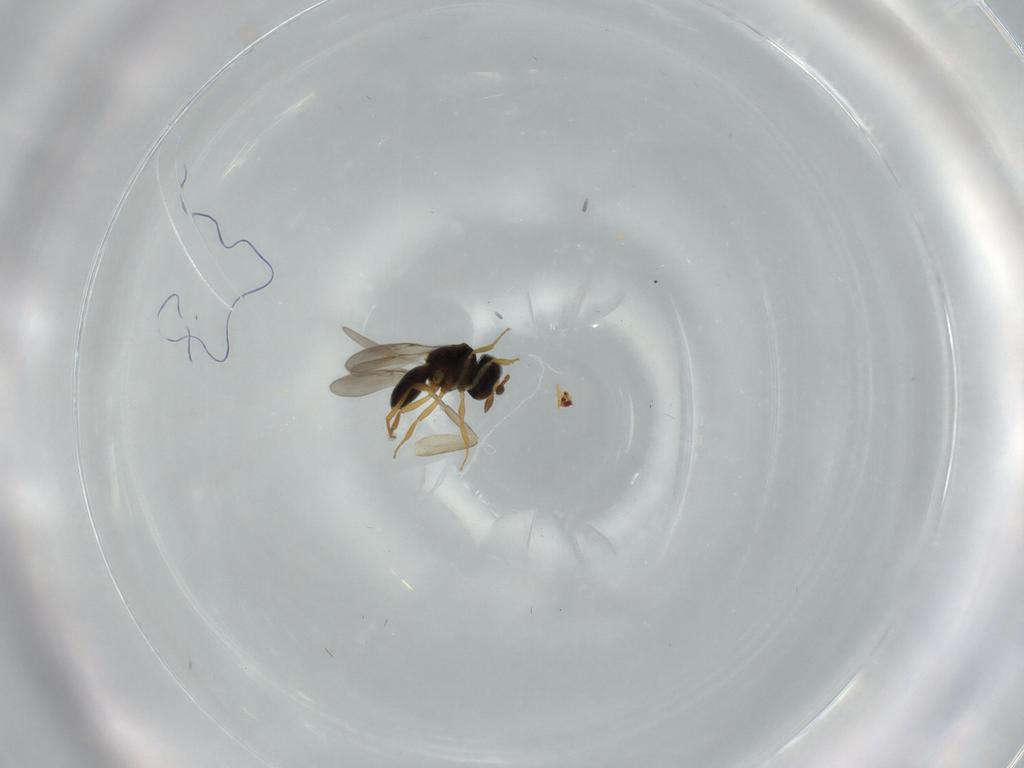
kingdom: Animalia
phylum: Arthropoda
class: Insecta
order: Hymenoptera
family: Scelionidae
